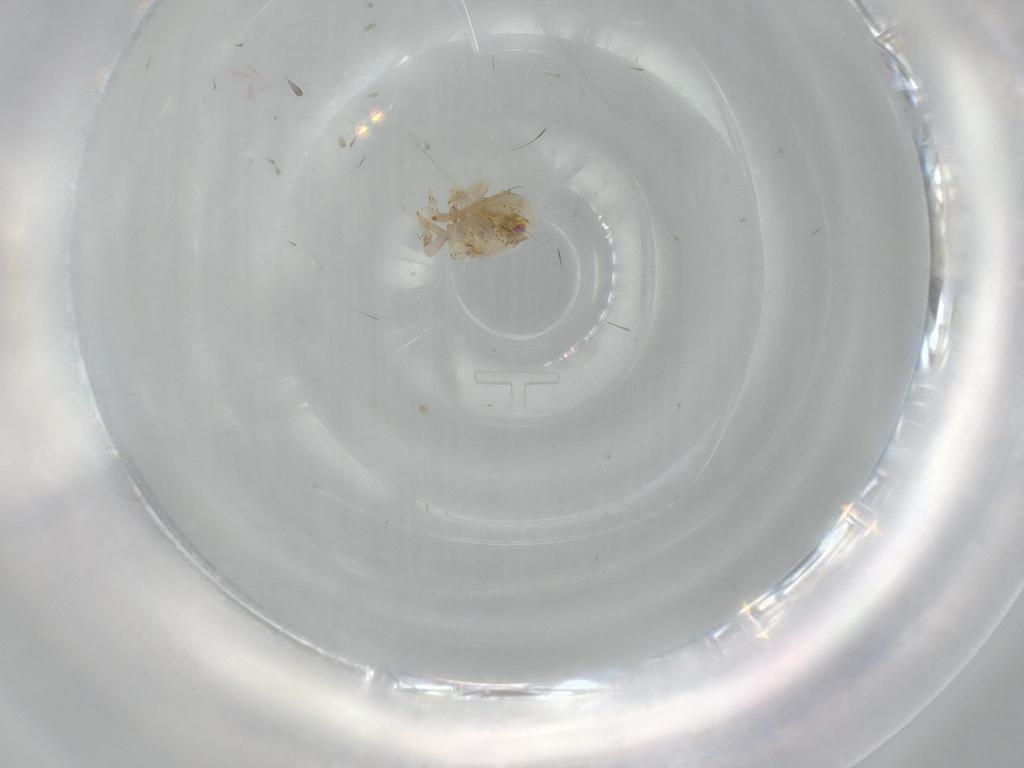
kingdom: Animalia
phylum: Arthropoda
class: Insecta
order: Hemiptera
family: Acanaloniidae
